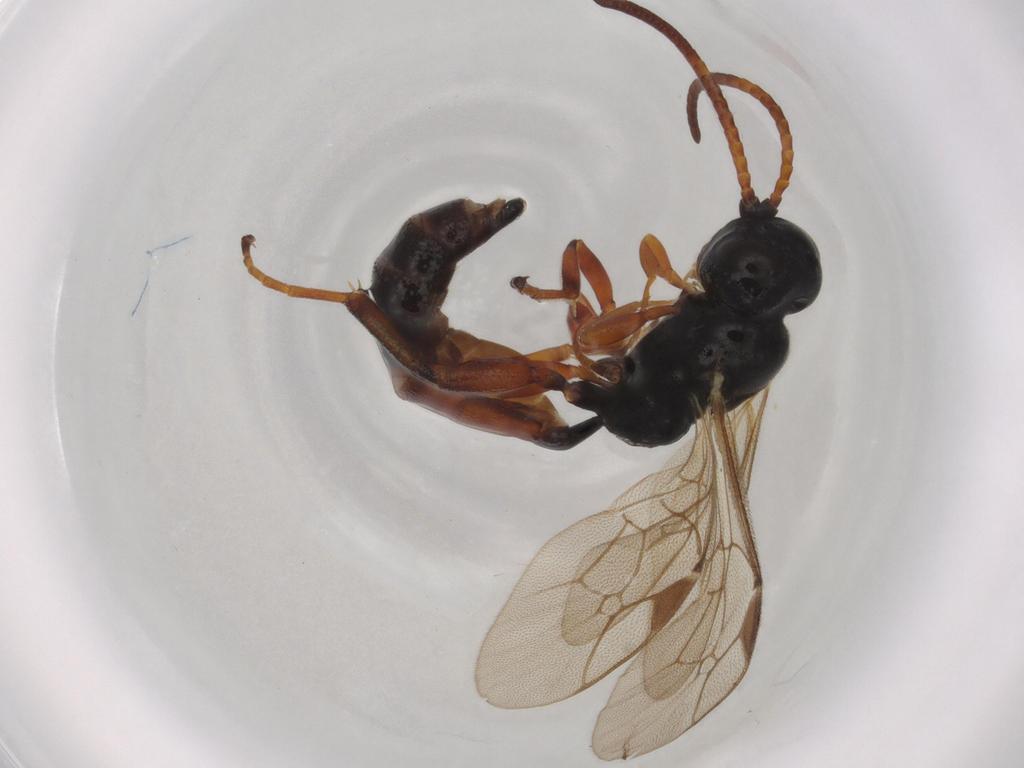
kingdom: Animalia
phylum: Arthropoda
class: Insecta
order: Hymenoptera
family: Ichneumonidae
